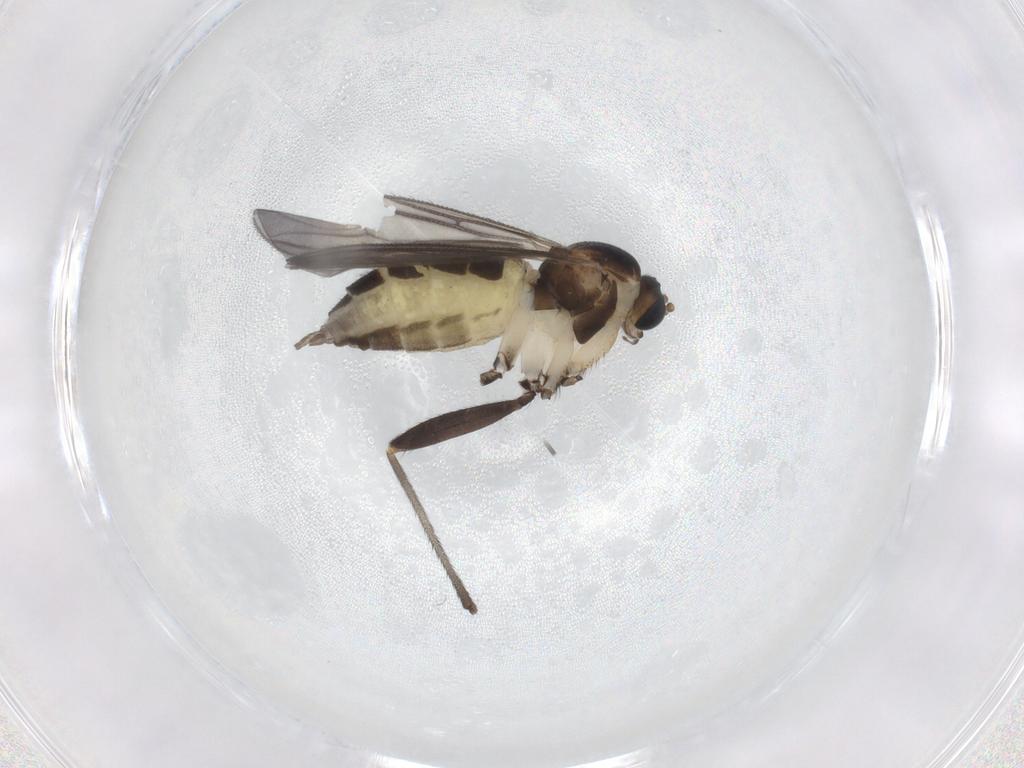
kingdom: Animalia
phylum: Arthropoda
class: Insecta
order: Diptera
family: Sciaridae
